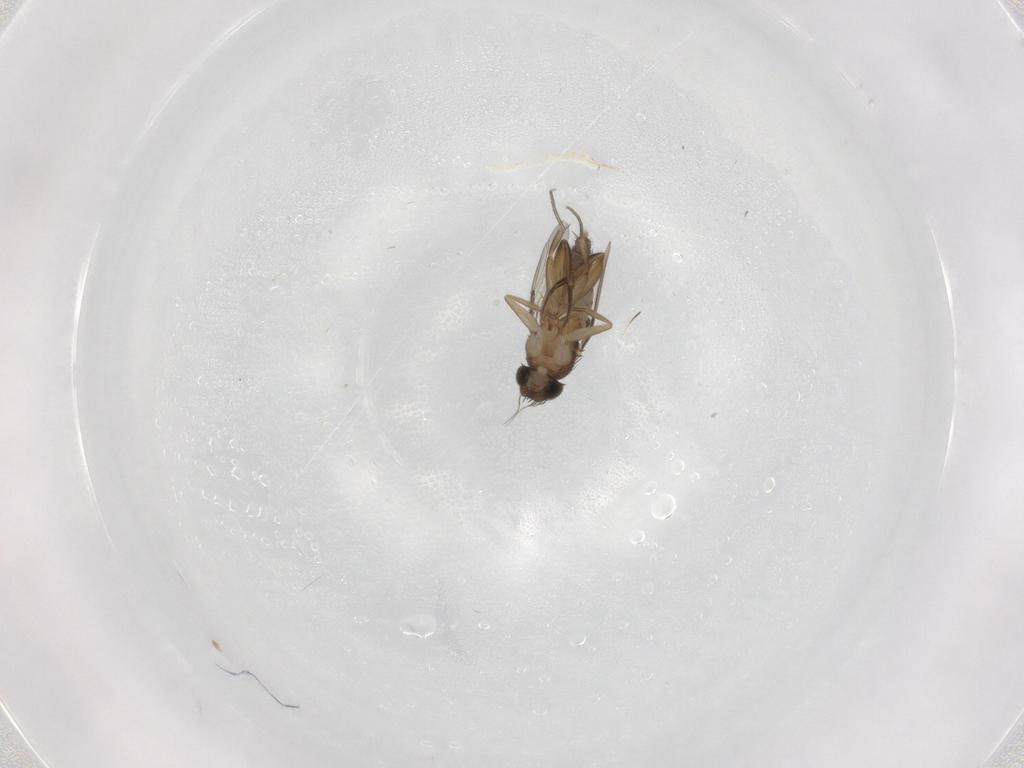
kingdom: Animalia
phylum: Arthropoda
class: Insecta
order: Diptera
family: Phoridae
